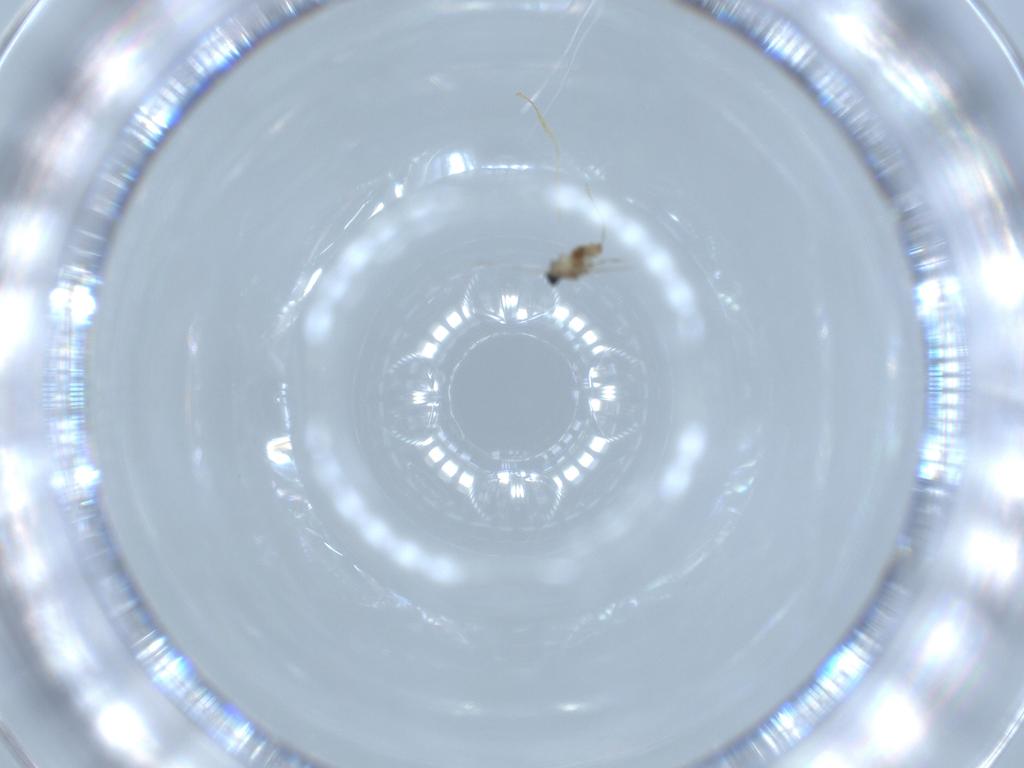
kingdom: Animalia
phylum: Arthropoda
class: Insecta
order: Diptera
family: Cecidomyiidae
